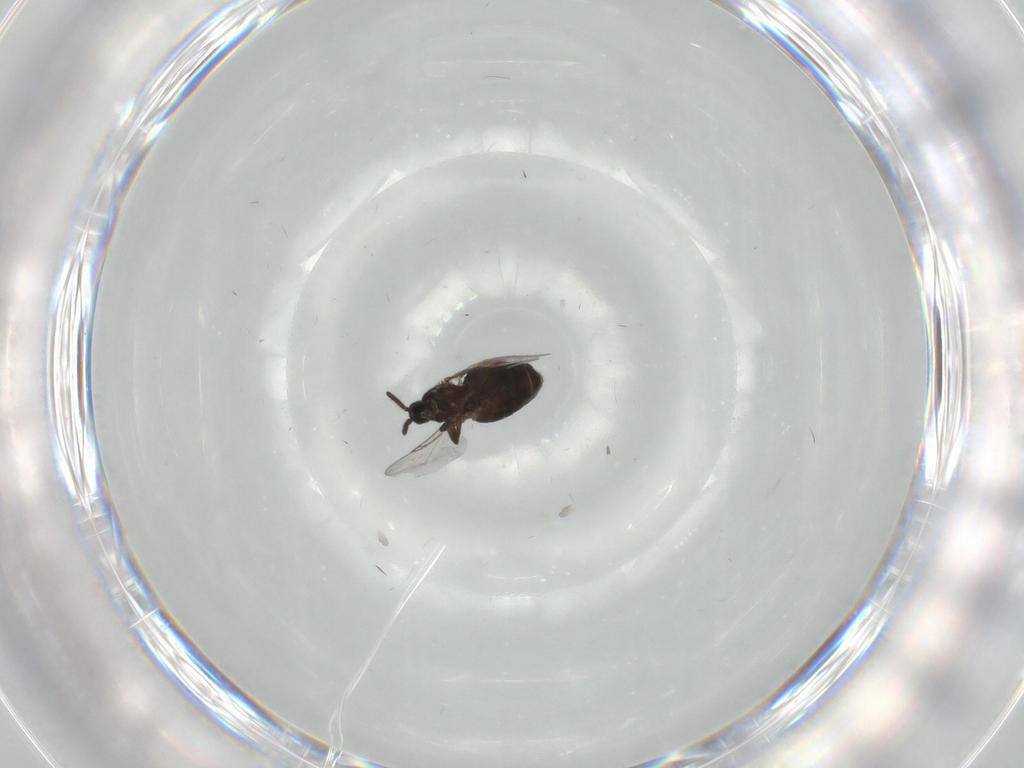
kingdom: Animalia
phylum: Arthropoda
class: Insecta
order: Diptera
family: Calliphoridae
